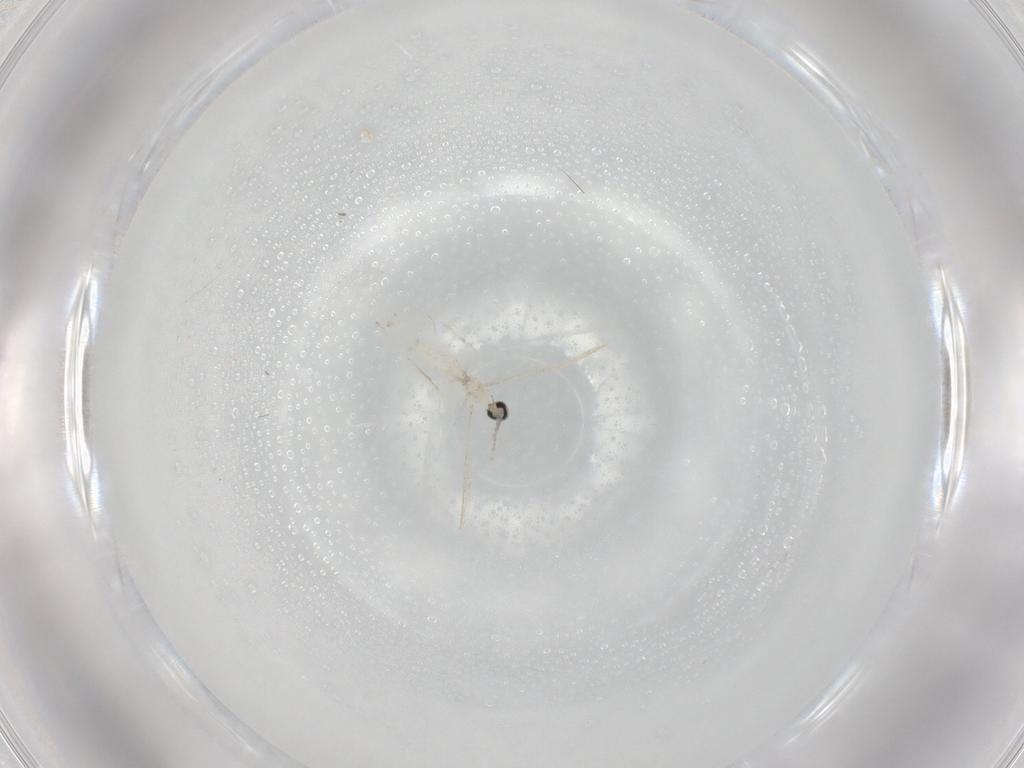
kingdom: Animalia
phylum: Arthropoda
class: Insecta
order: Diptera
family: Cecidomyiidae
